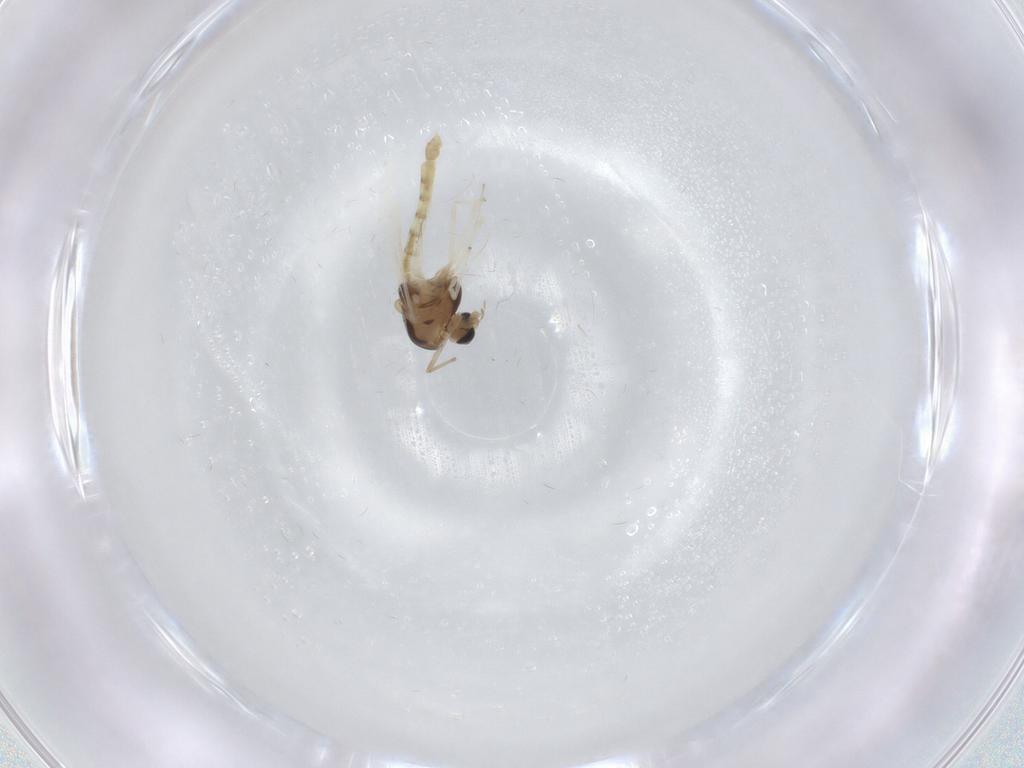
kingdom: Animalia
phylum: Arthropoda
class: Insecta
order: Diptera
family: Chironomidae
